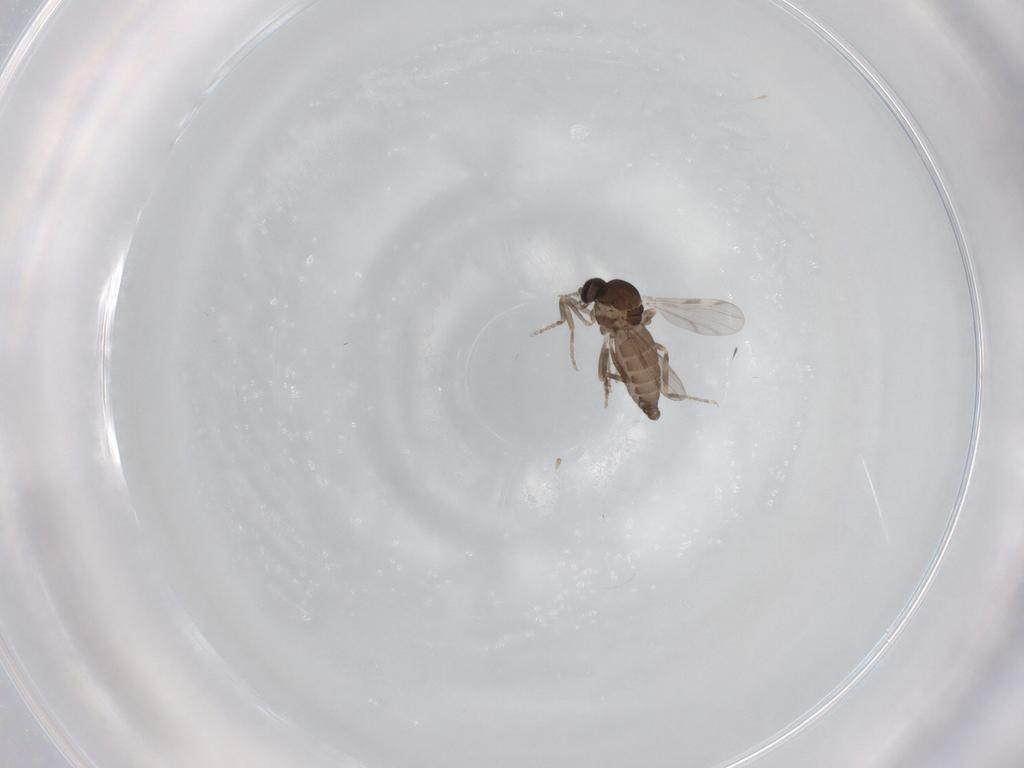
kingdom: Animalia
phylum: Arthropoda
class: Insecta
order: Diptera
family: Ceratopogonidae
